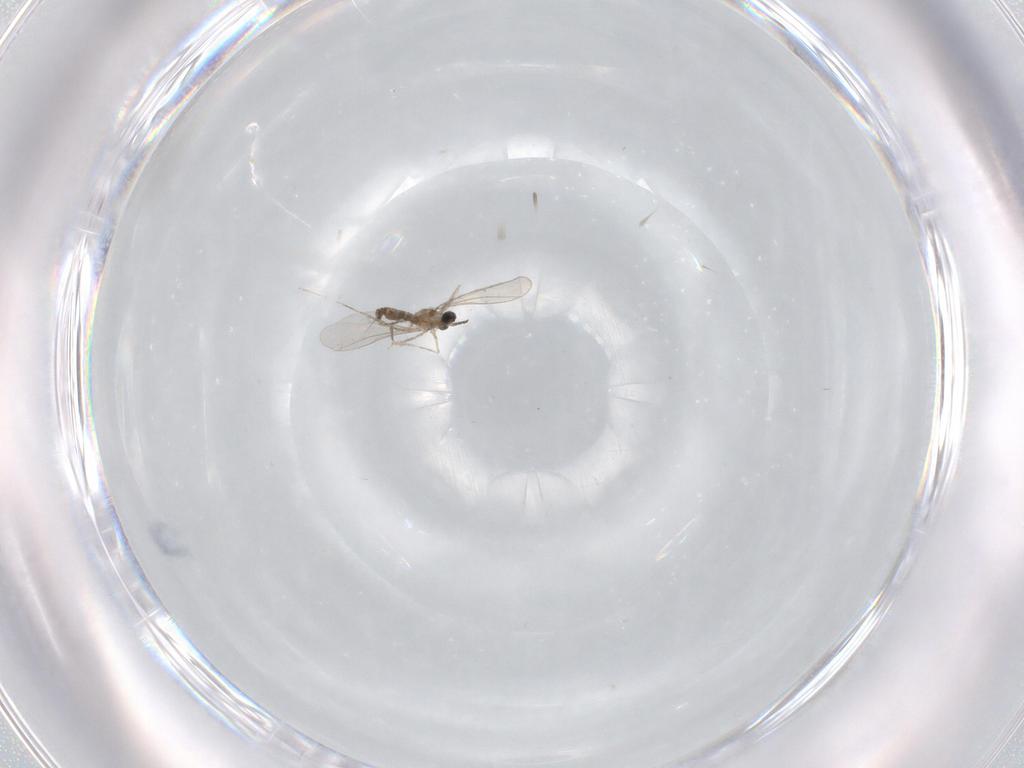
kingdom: Animalia
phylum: Arthropoda
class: Insecta
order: Diptera
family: Cecidomyiidae
